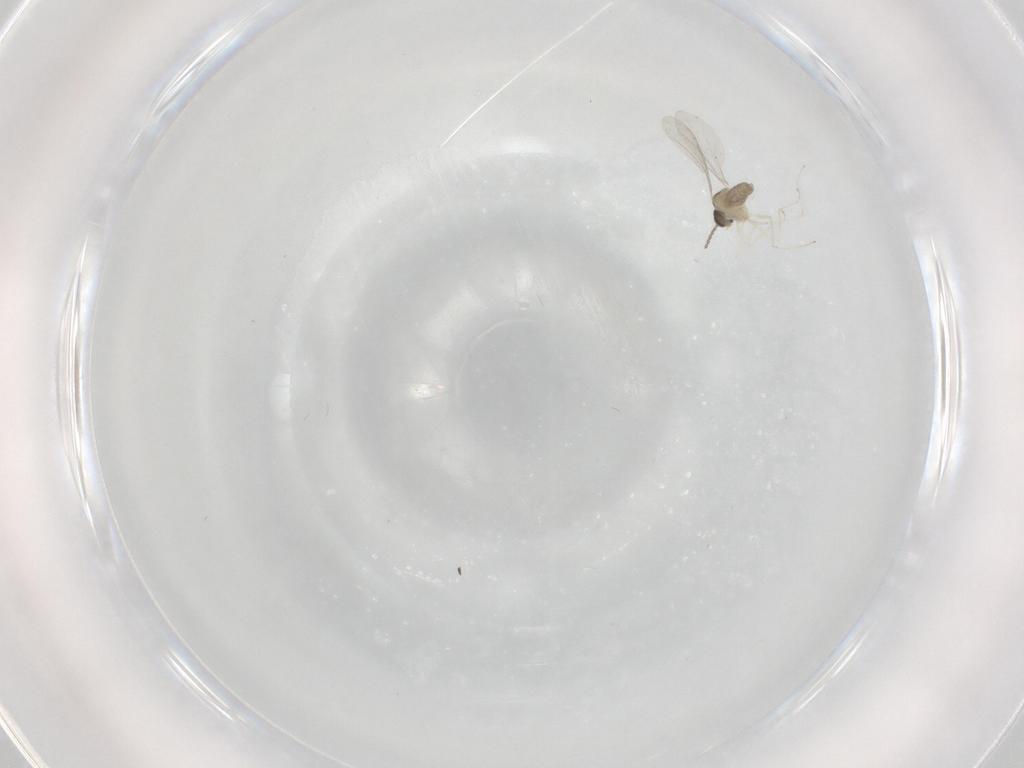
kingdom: Animalia
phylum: Arthropoda
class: Insecta
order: Diptera
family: Cecidomyiidae
